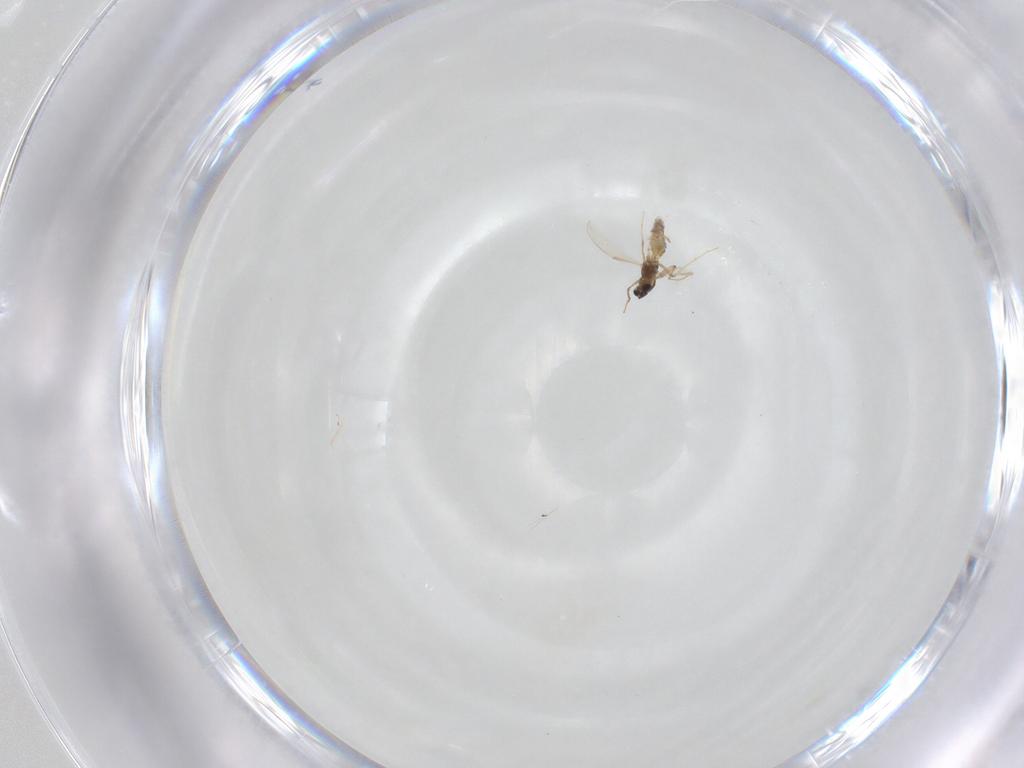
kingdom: Animalia
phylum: Arthropoda
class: Insecta
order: Diptera
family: Chironomidae
